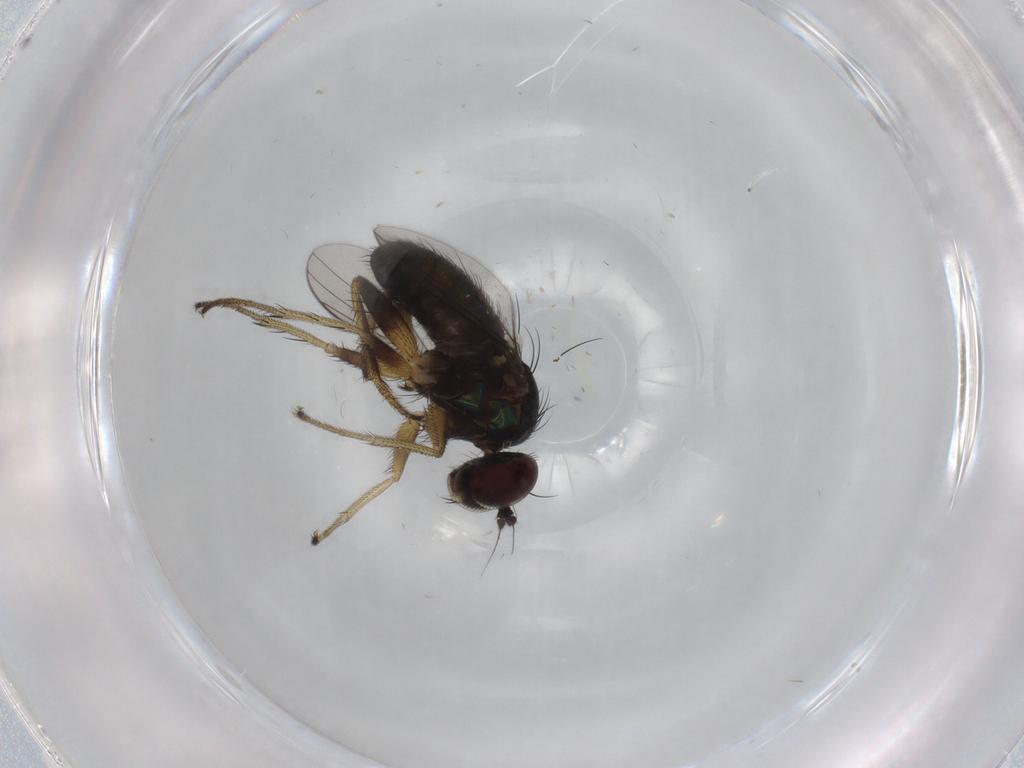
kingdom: Animalia
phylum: Arthropoda
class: Insecta
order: Diptera
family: Dolichopodidae
